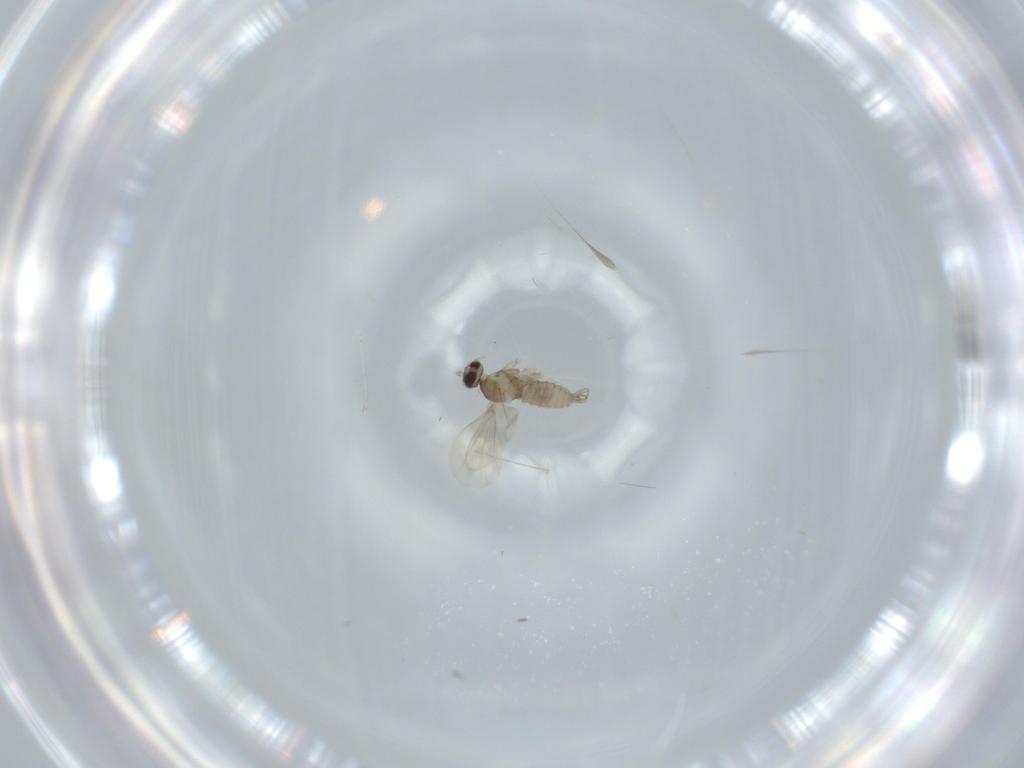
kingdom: Animalia
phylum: Arthropoda
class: Insecta
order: Diptera
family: Cecidomyiidae
